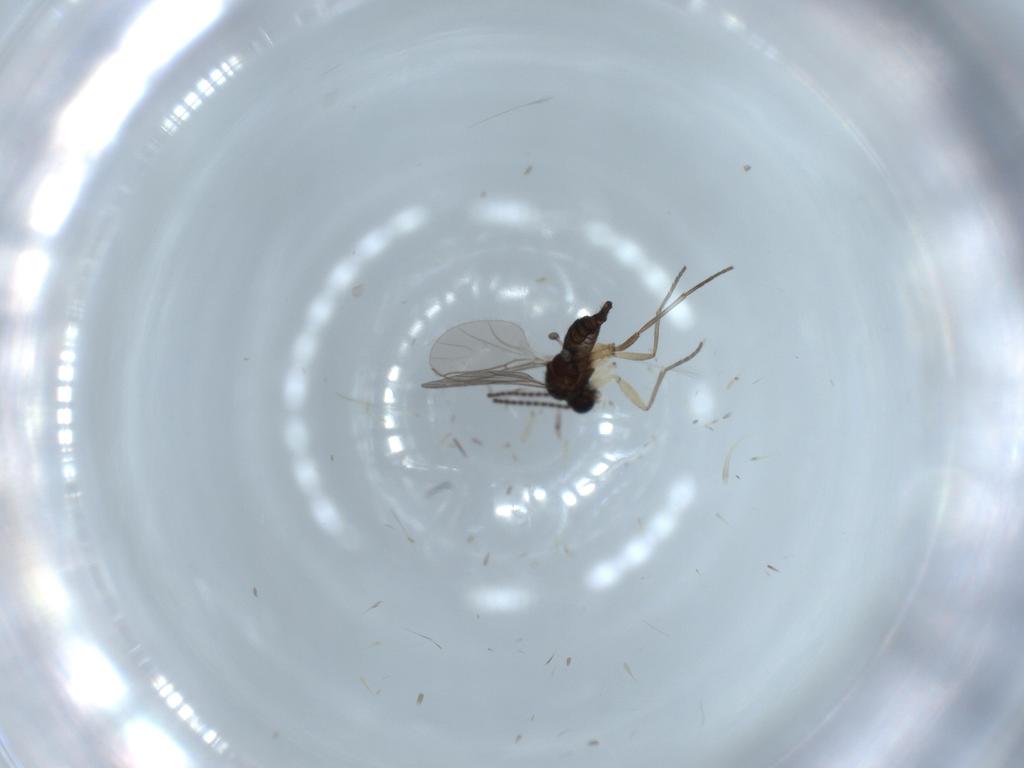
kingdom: Animalia
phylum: Arthropoda
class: Insecta
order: Diptera
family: Sciaridae
